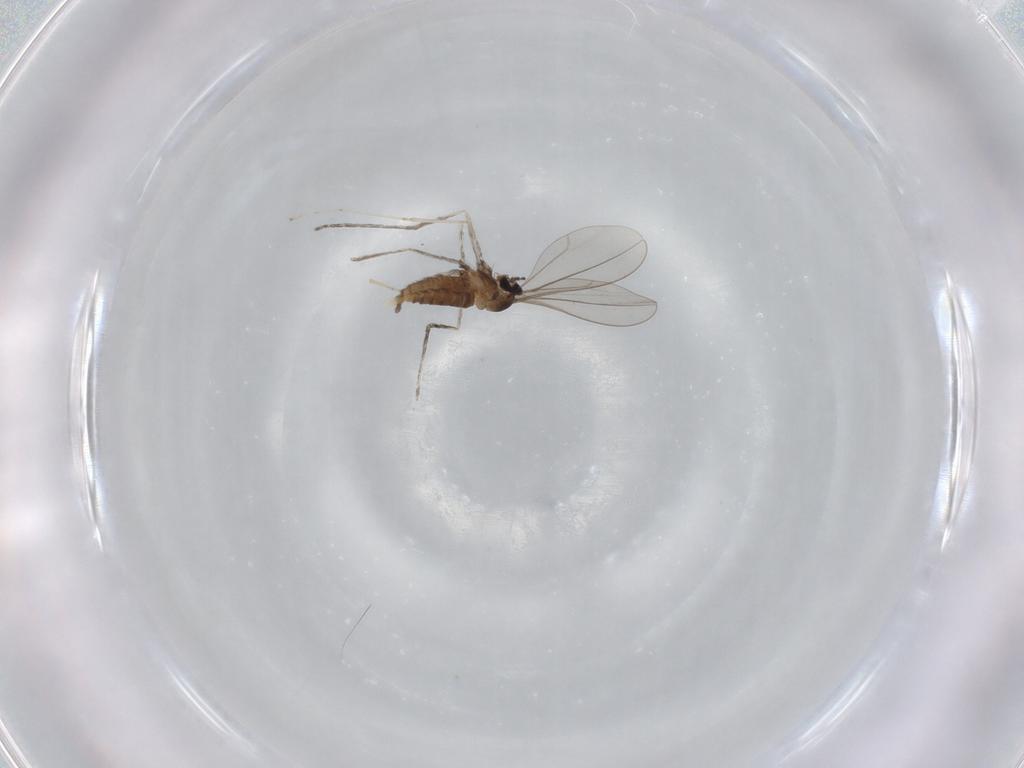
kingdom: Animalia
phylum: Arthropoda
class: Insecta
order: Diptera
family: Cecidomyiidae
